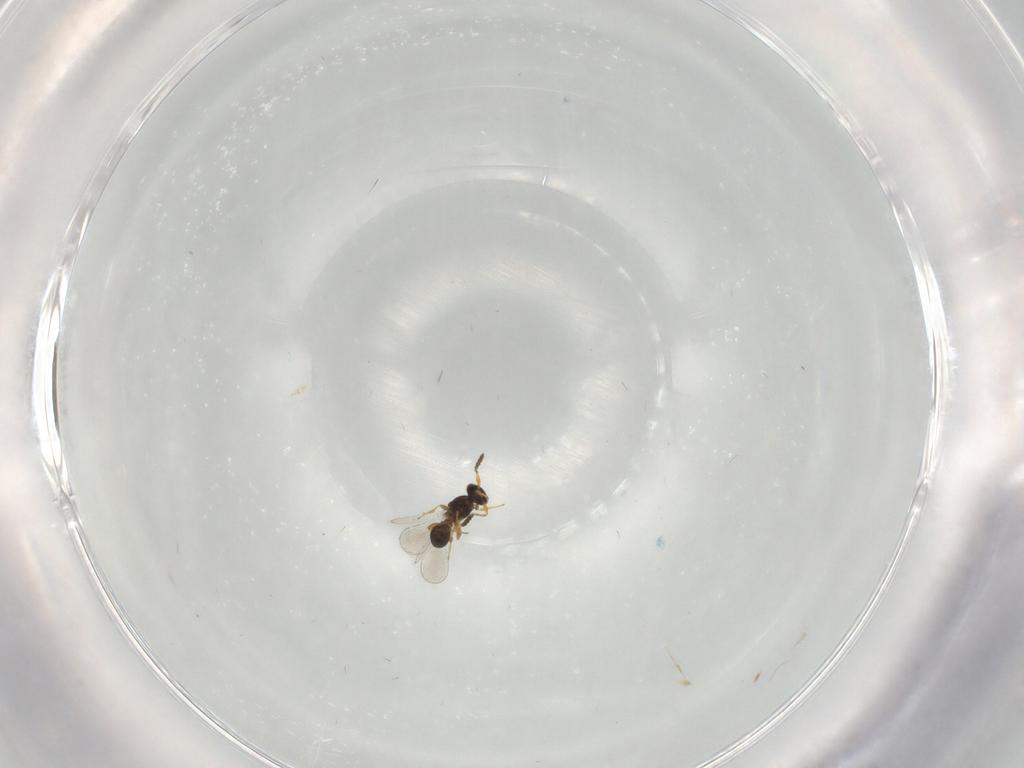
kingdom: Animalia
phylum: Arthropoda
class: Insecta
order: Hymenoptera
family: Platygastridae
